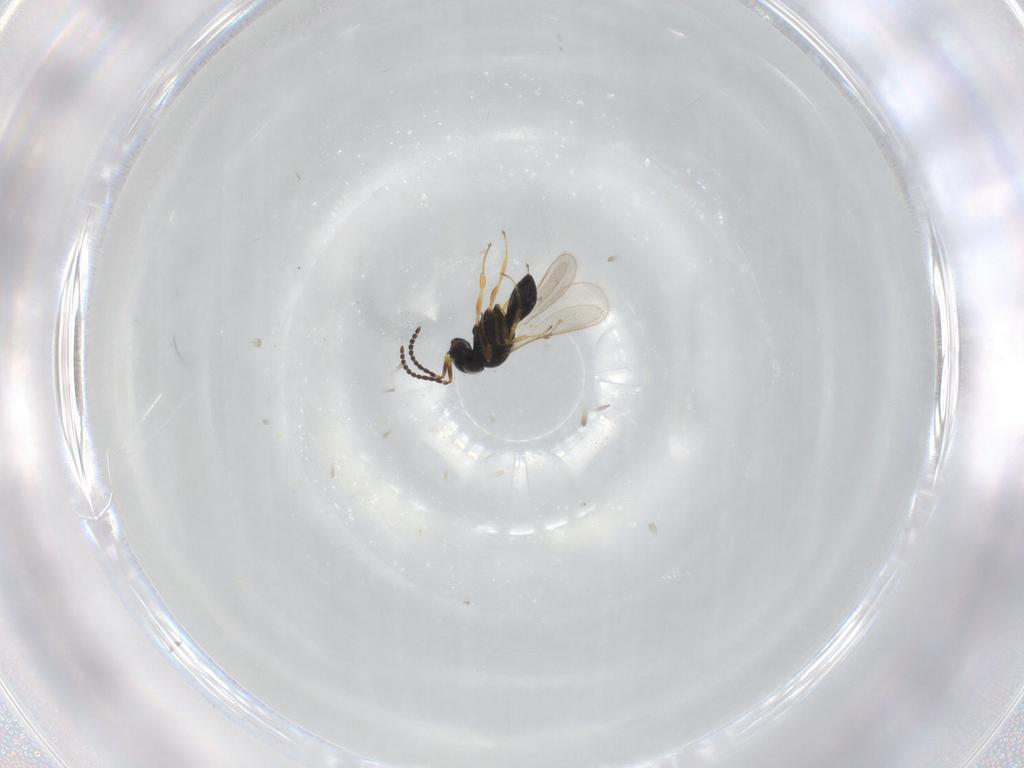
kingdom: Animalia
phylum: Arthropoda
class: Insecta
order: Hymenoptera
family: Scelionidae
